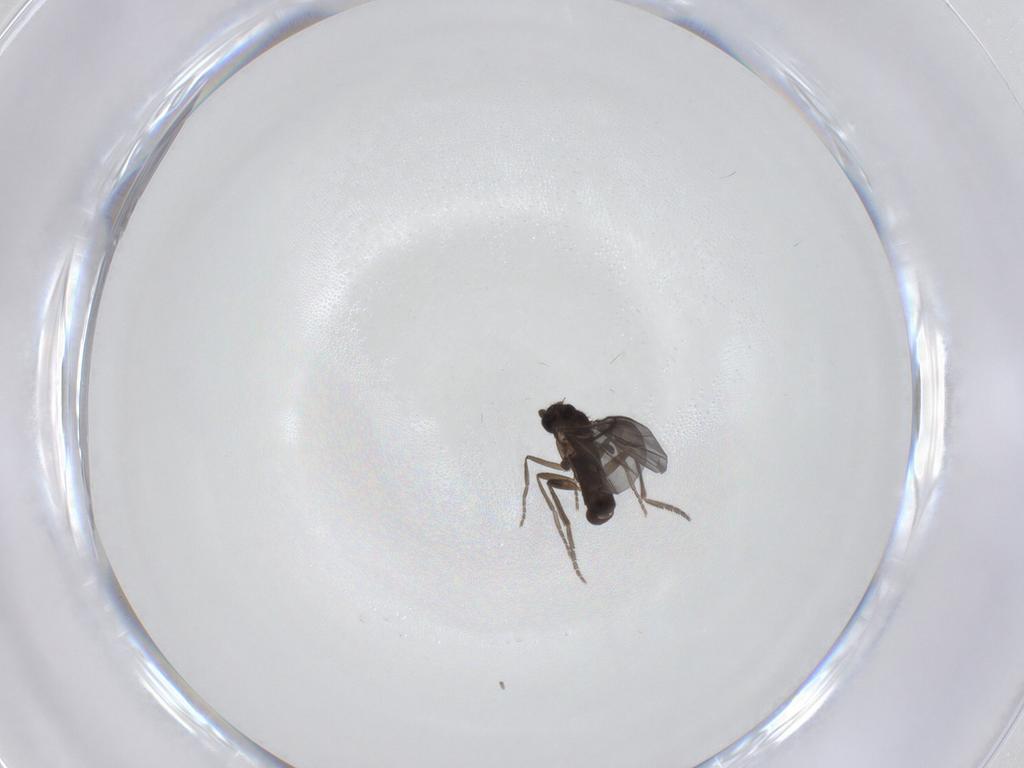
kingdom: Animalia
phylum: Arthropoda
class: Insecta
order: Diptera
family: Phoridae
